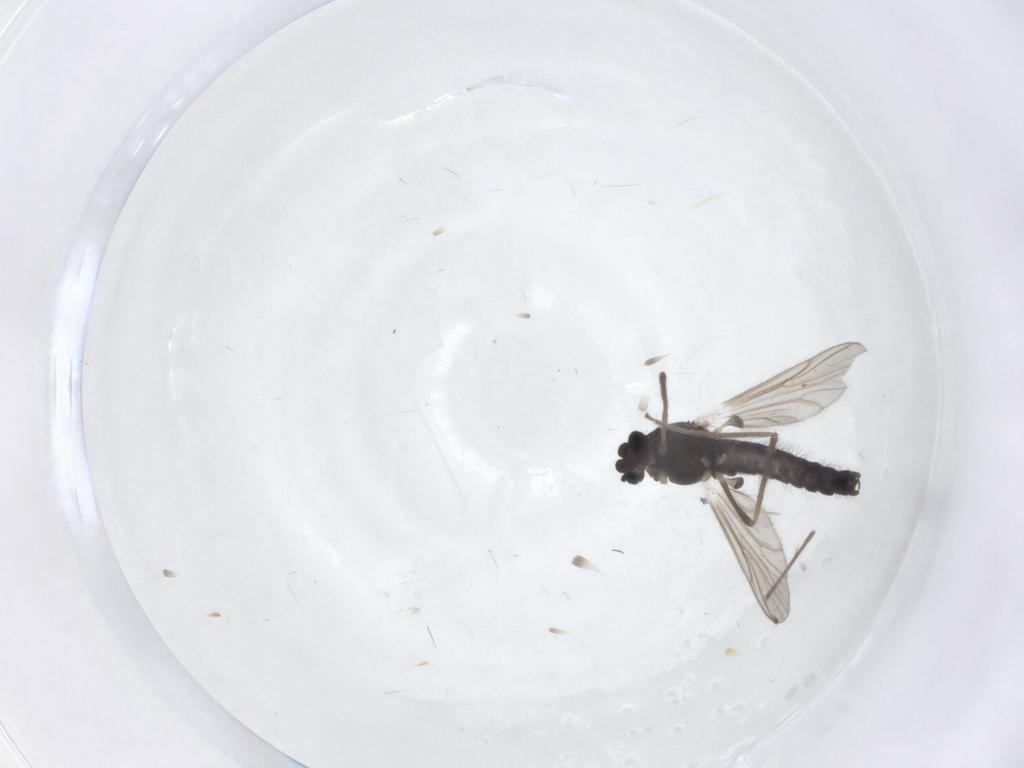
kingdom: Animalia
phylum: Arthropoda
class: Insecta
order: Diptera
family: Chironomidae
